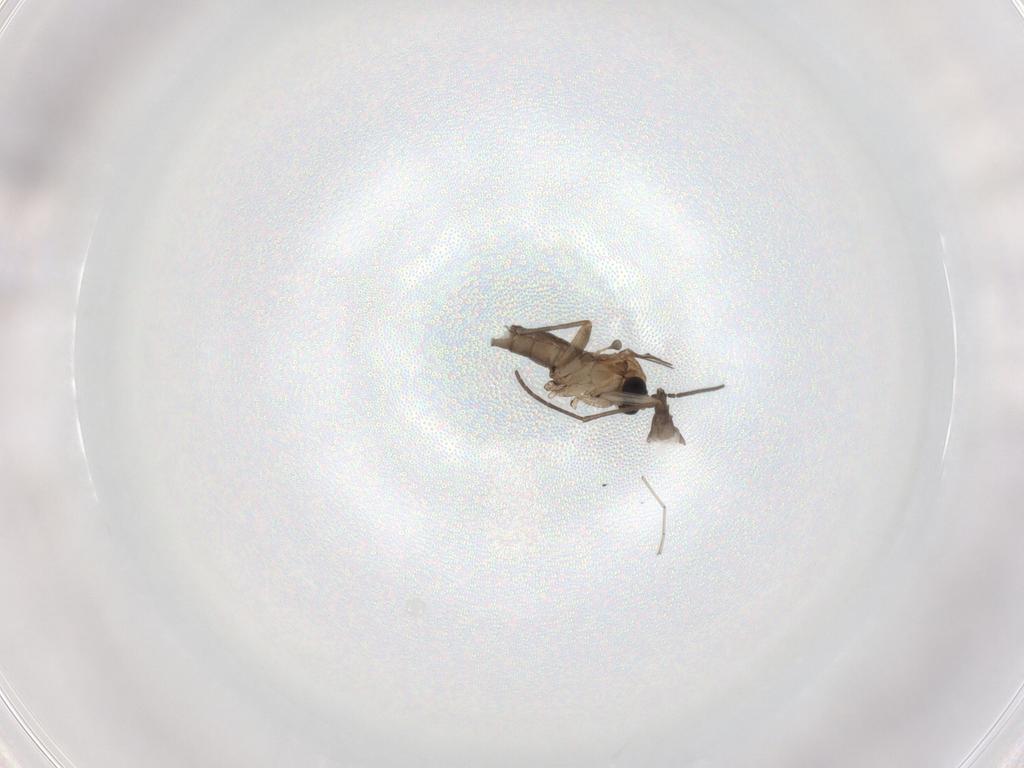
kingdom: Animalia
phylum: Arthropoda
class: Insecta
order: Diptera
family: Sciaridae
